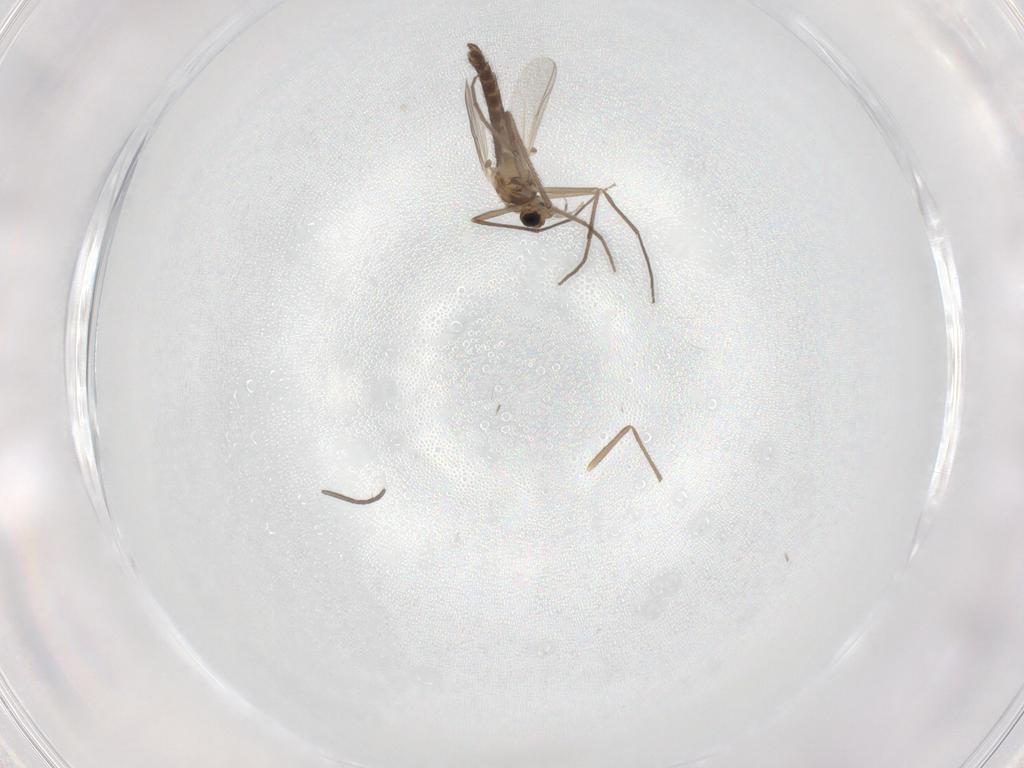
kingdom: Animalia
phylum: Arthropoda
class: Insecta
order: Diptera
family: Chironomidae
